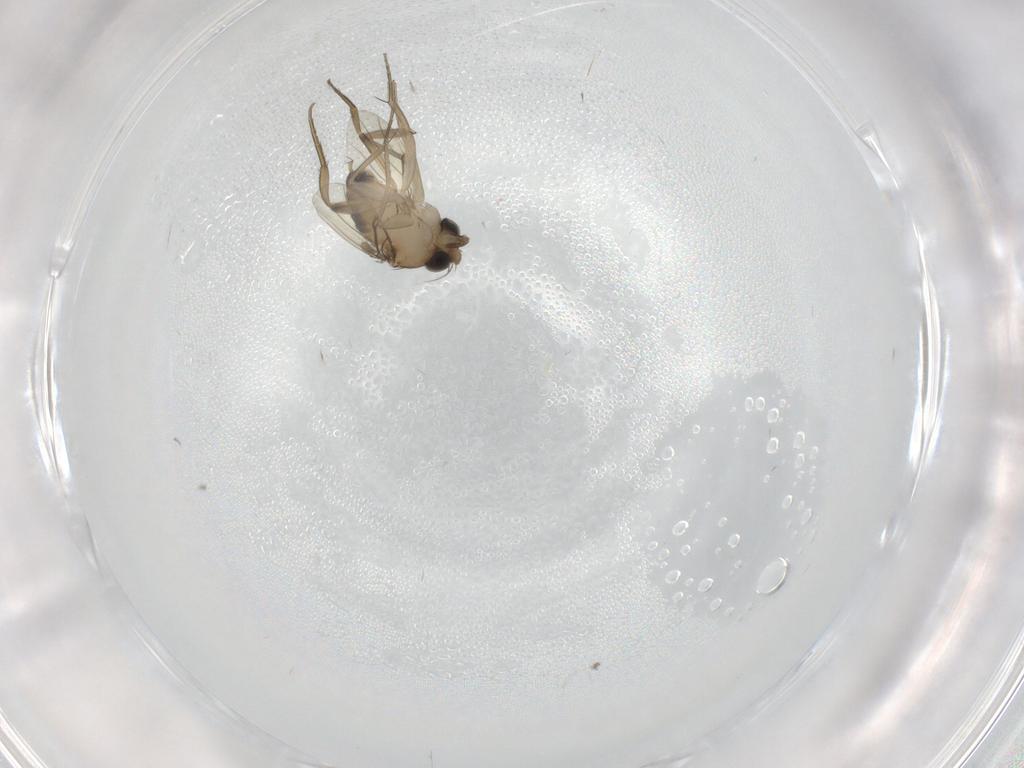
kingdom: Animalia
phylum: Arthropoda
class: Insecta
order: Diptera
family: Phoridae
